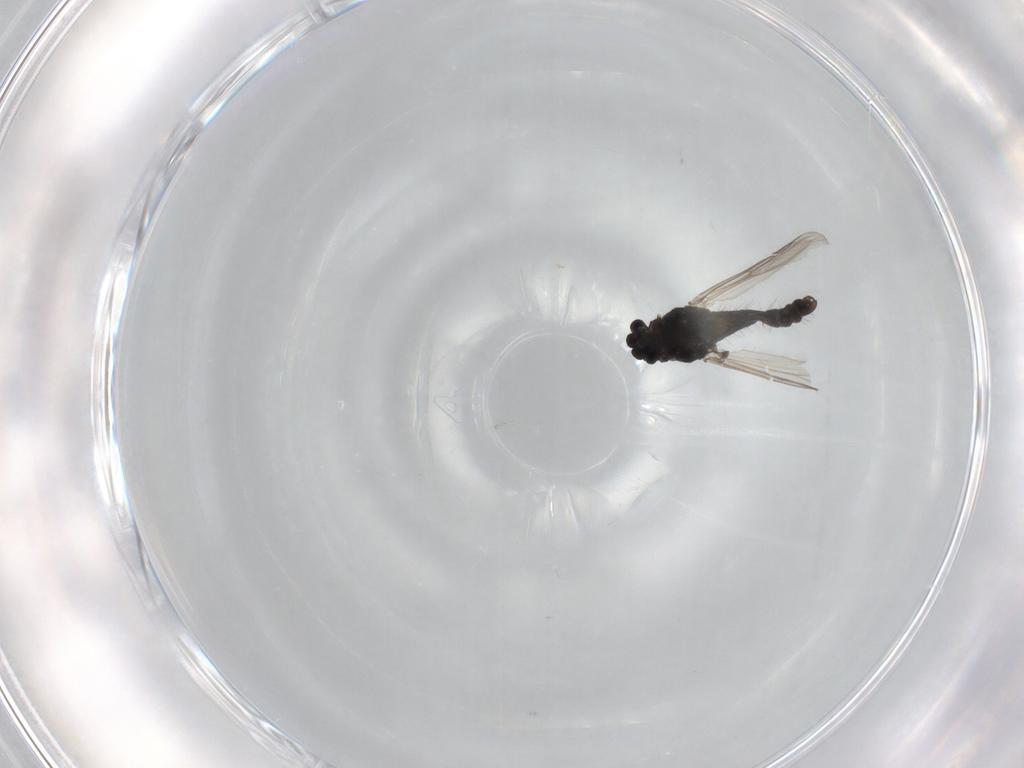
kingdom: Animalia
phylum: Arthropoda
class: Insecta
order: Diptera
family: Chironomidae
